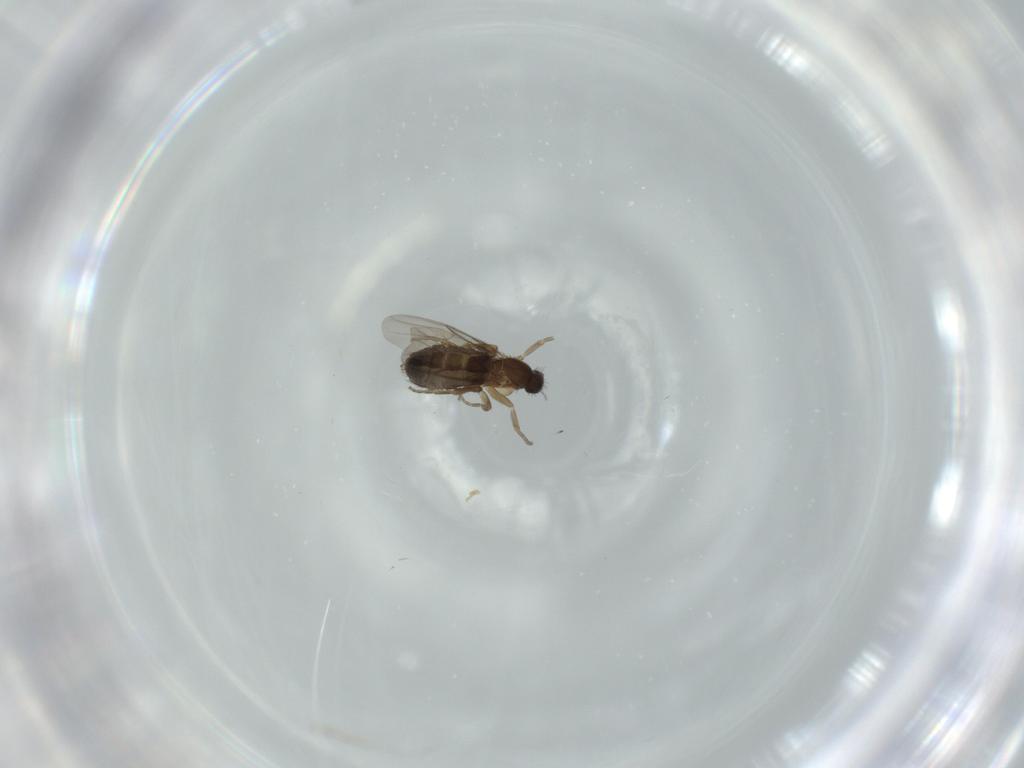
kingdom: Animalia
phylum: Arthropoda
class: Insecta
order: Diptera
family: Phoridae
